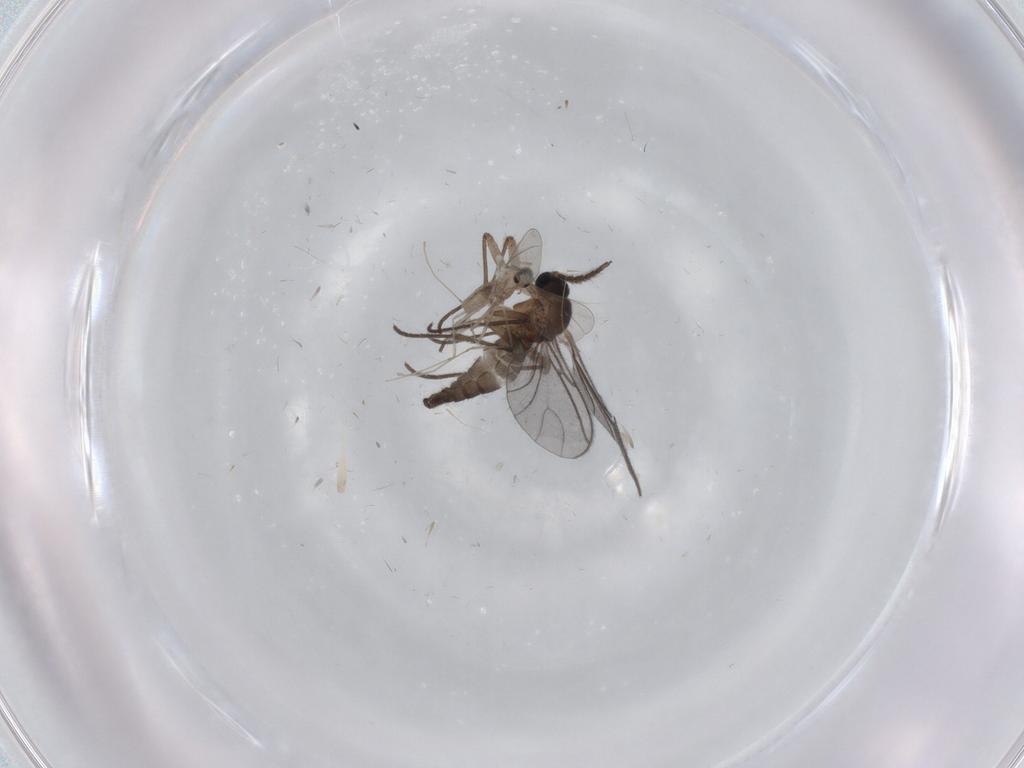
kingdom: Animalia
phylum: Arthropoda
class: Insecta
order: Diptera
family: Sciaridae
